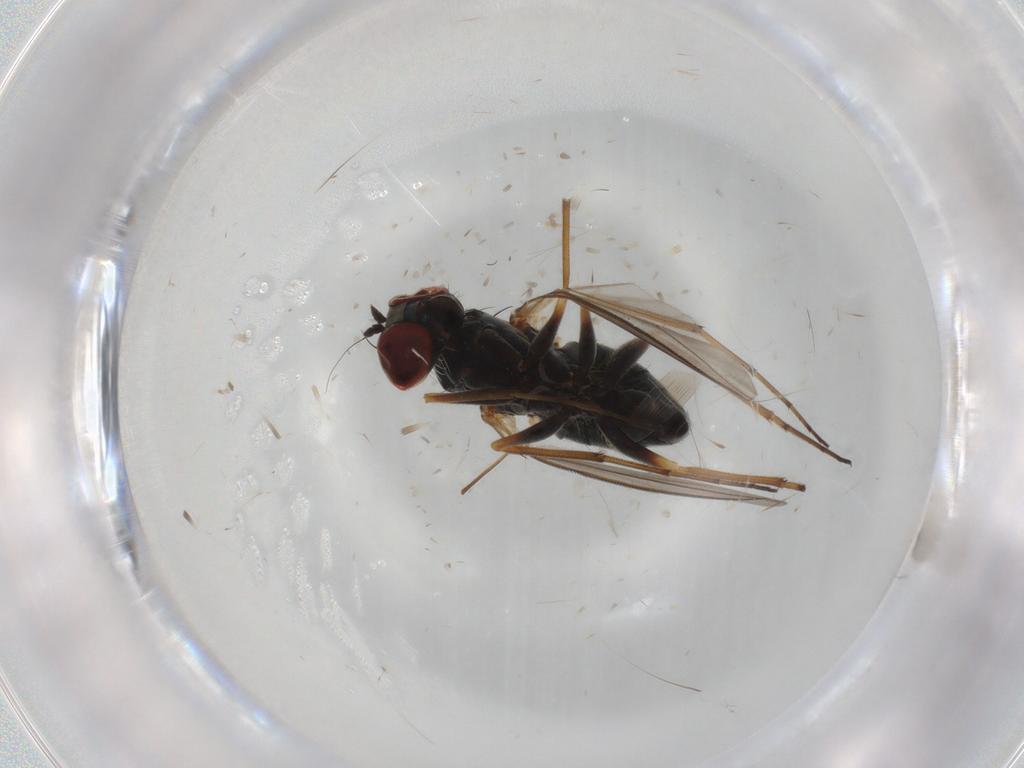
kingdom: Animalia
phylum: Arthropoda
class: Insecta
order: Diptera
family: Dolichopodidae
